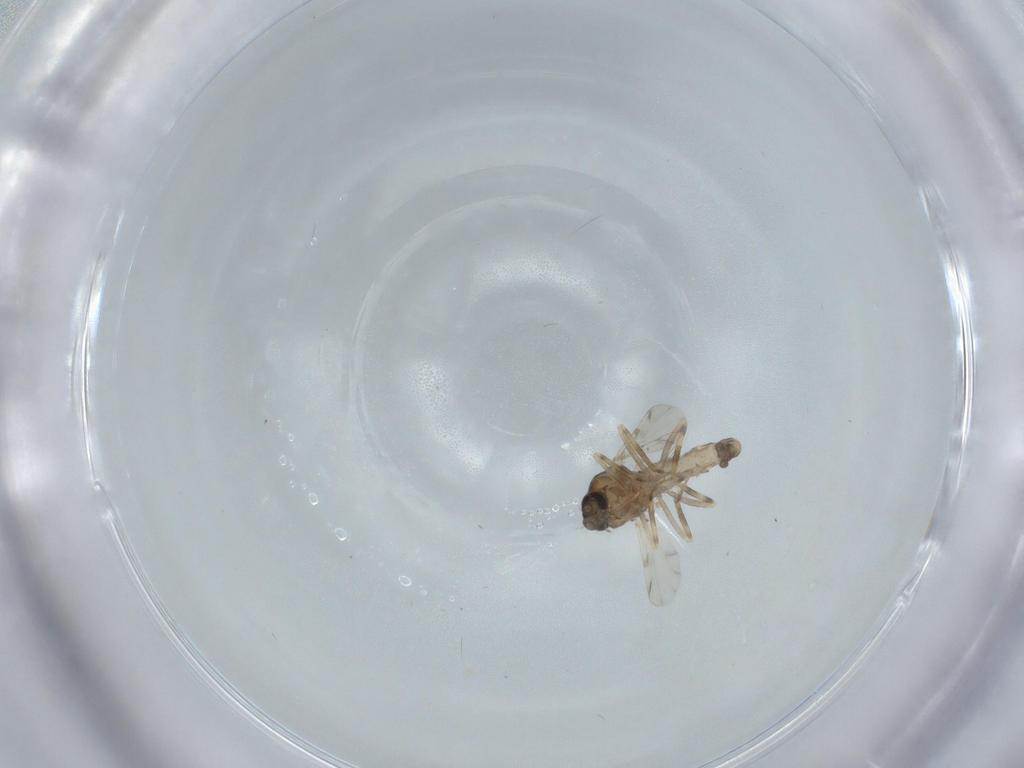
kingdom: Animalia
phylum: Arthropoda
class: Insecta
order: Diptera
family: Ceratopogonidae
